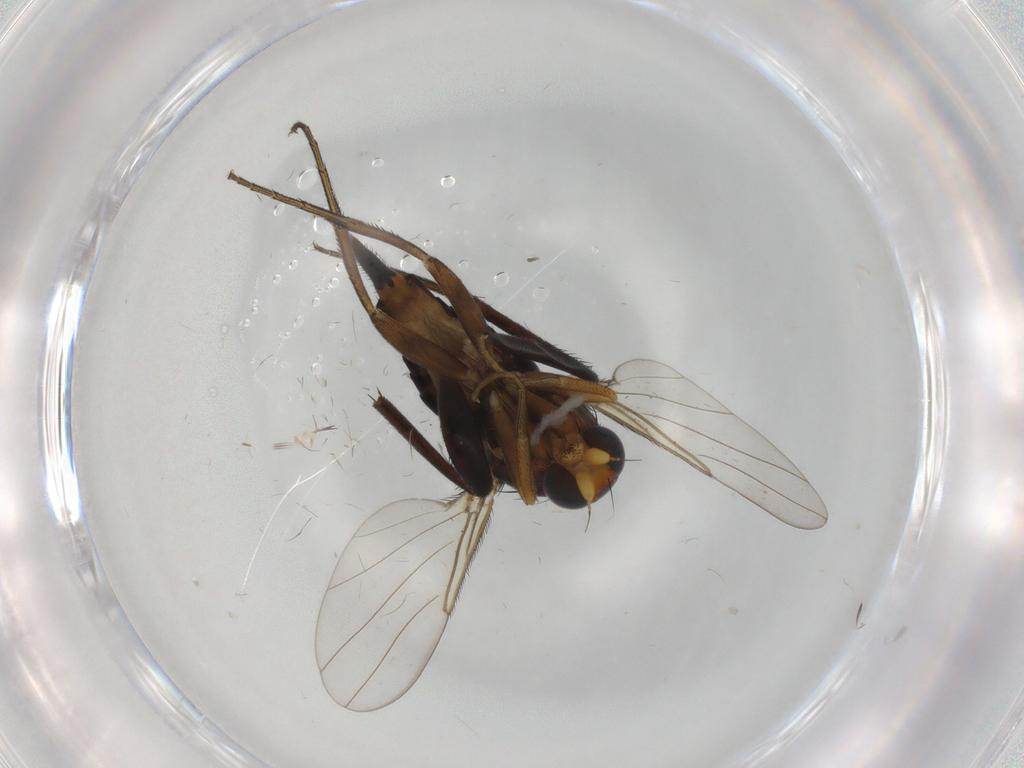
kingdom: Animalia
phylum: Arthropoda
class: Insecta
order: Diptera
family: Phoridae
